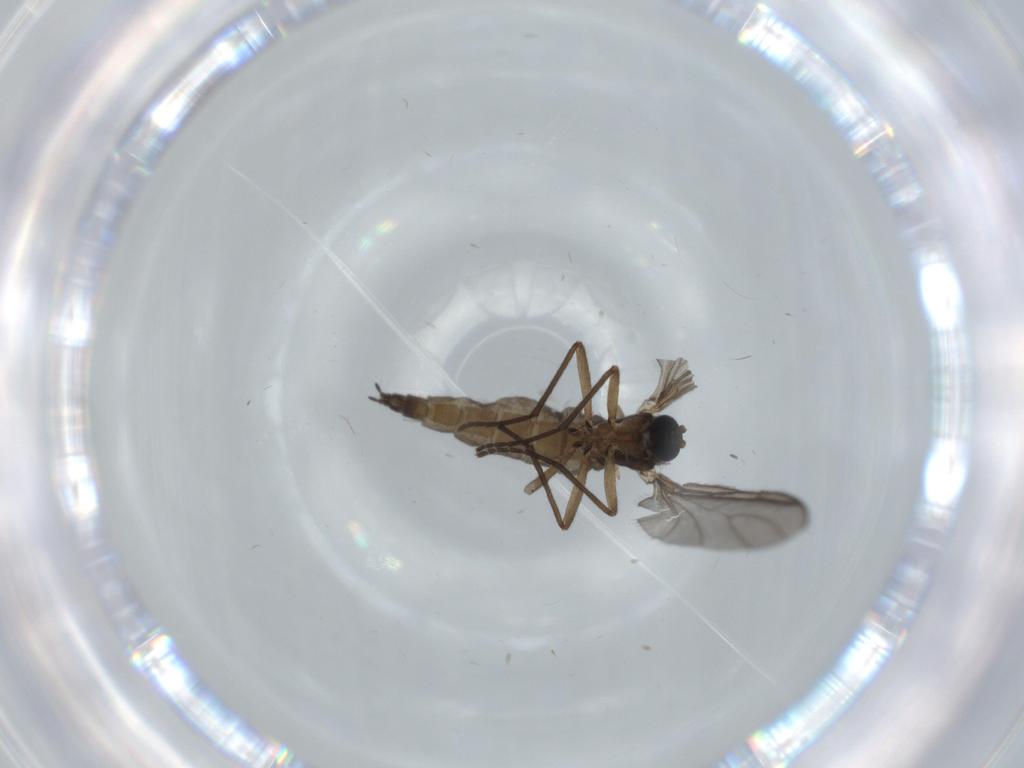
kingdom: Animalia
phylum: Arthropoda
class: Insecta
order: Diptera
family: Sciaridae
